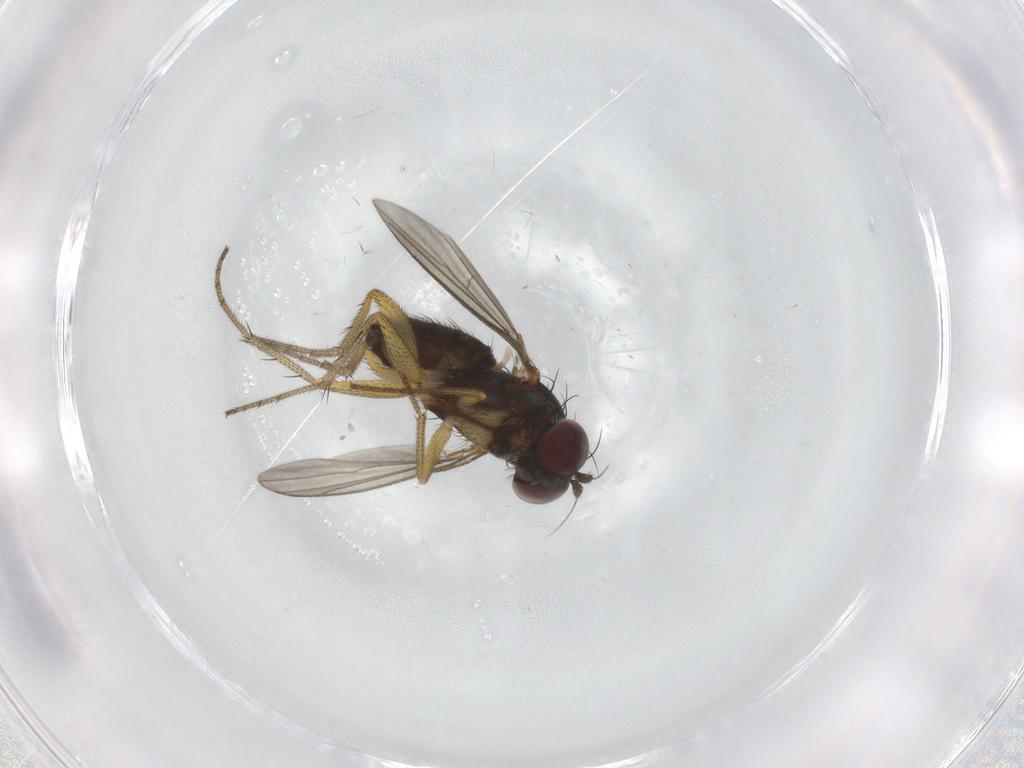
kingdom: Animalia
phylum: Arthropoda
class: Insecta
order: Diptera
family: Dolichopodidae
